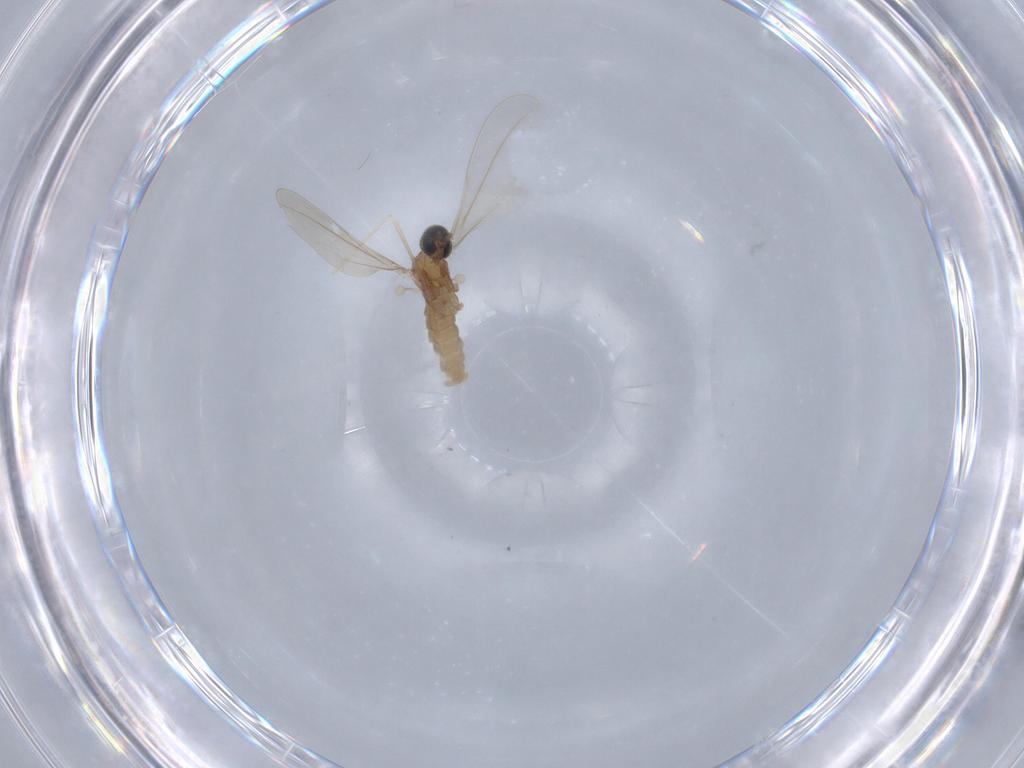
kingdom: Animalia
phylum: Arthropoda
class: Insecta
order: Diptera
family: Cecidomyiidae
